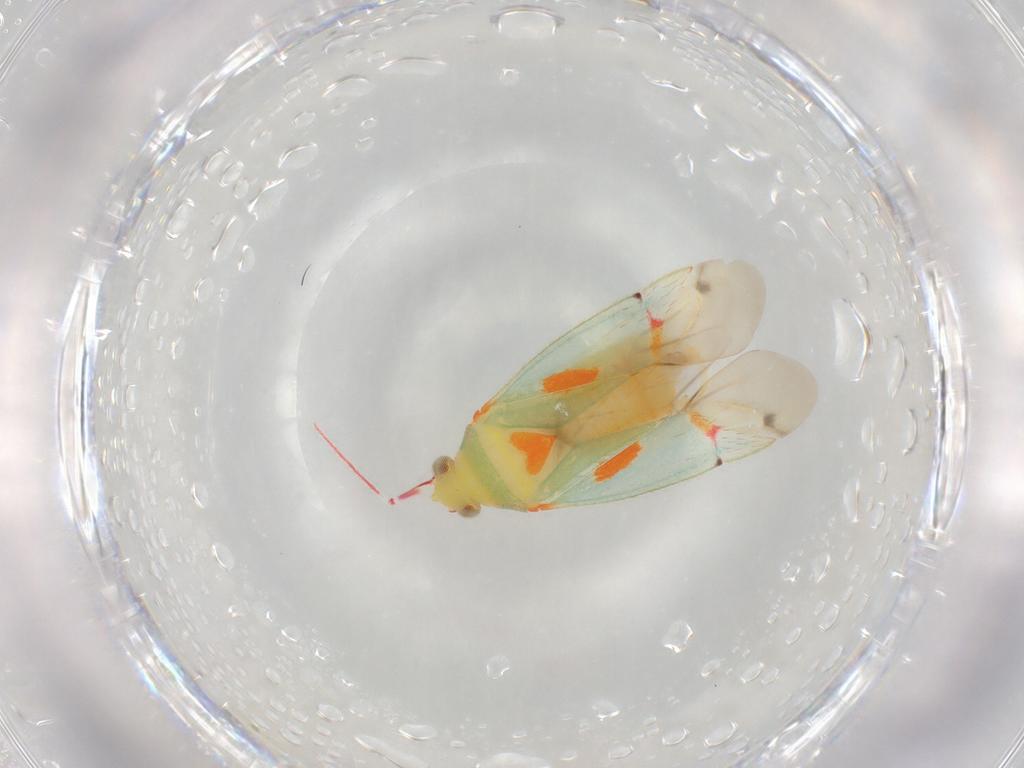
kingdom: Animalia
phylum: Arthropoda
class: Insecta
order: Hemiptera
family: Miridae
